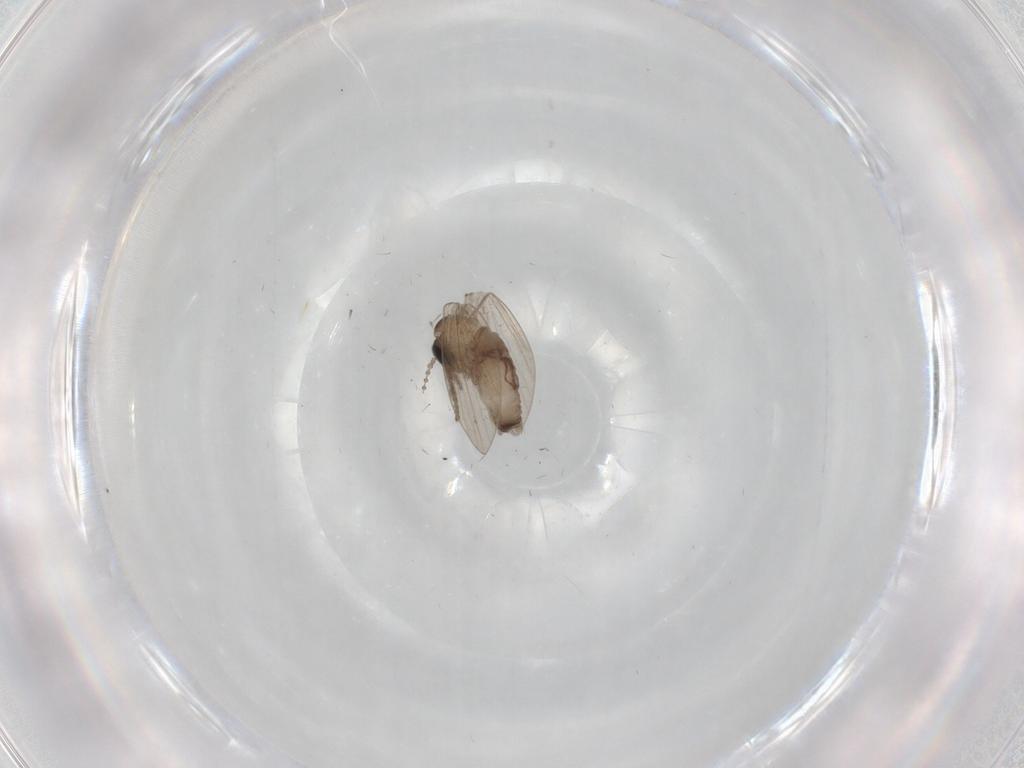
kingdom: Animalia
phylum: Arthropoda
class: Insecta
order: Diptera
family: Psychodidae
